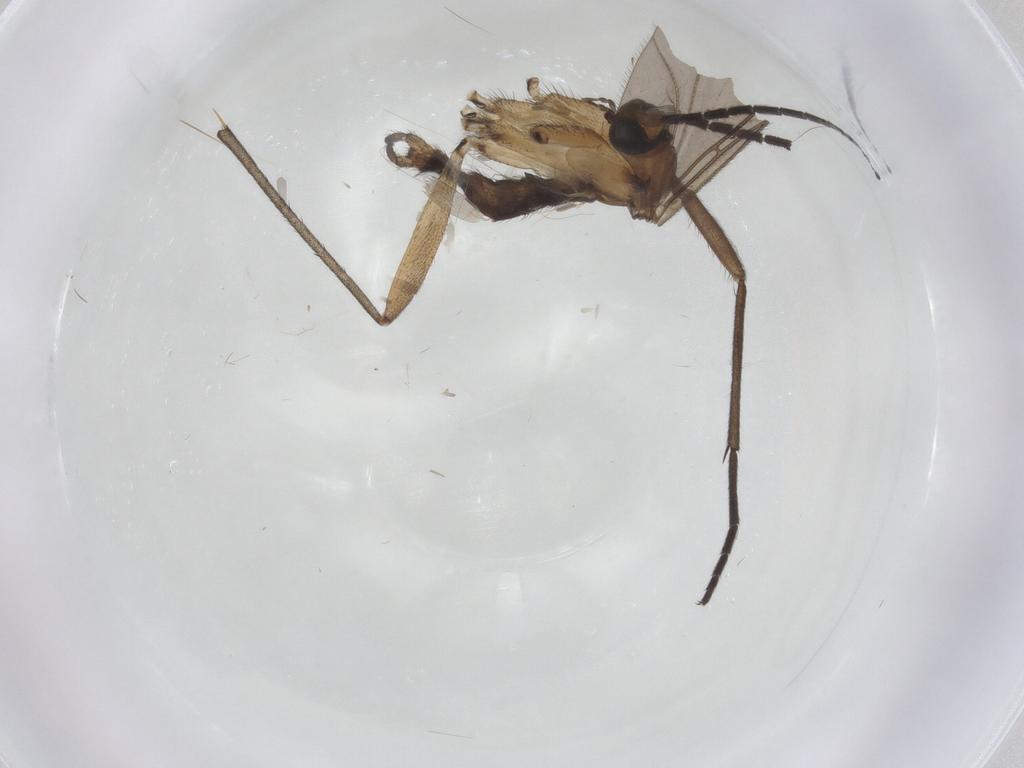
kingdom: Animalia
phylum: Arthropoda
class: Insecta
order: Diptera
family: Sciaridae
